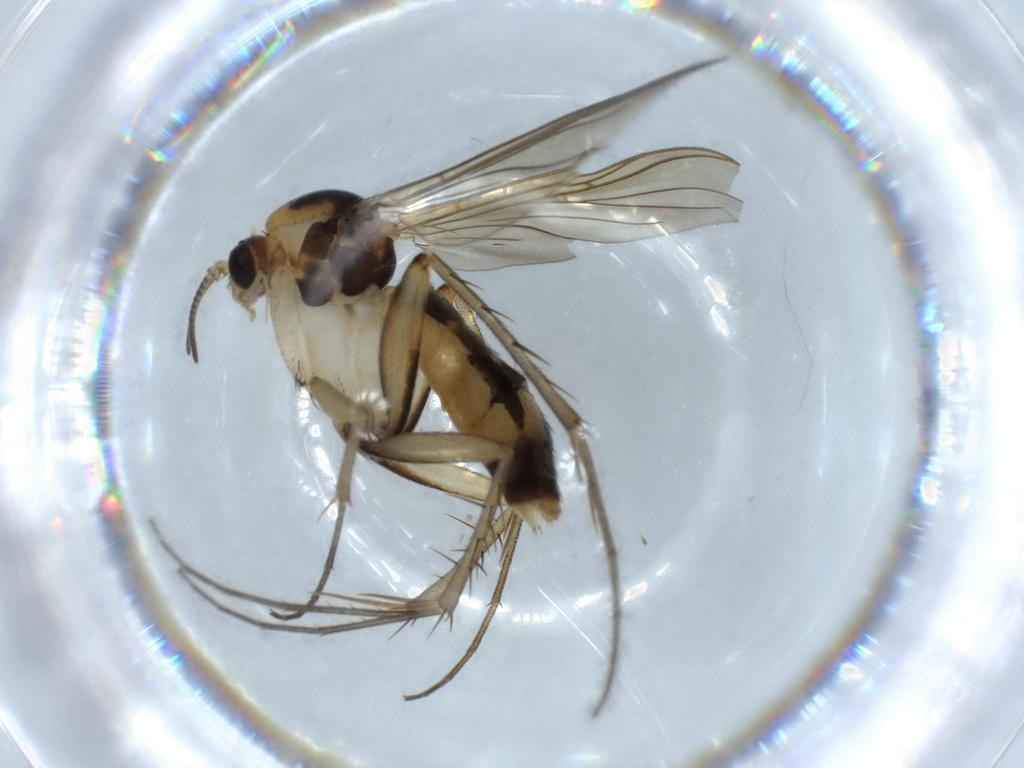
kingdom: Animalia
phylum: Arthropoda
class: Insecta
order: Diptera
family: Mycetophilidae
